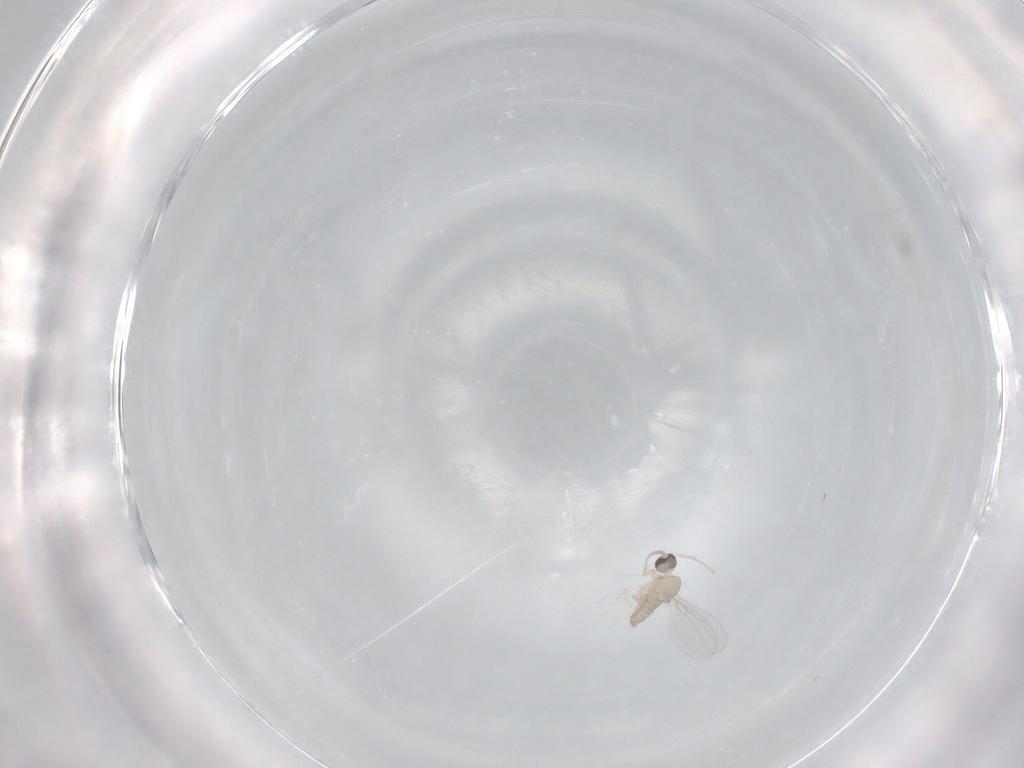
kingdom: Animalia
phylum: Arthropoda
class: Insecta
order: Diptera
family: Cecidomyiidae
